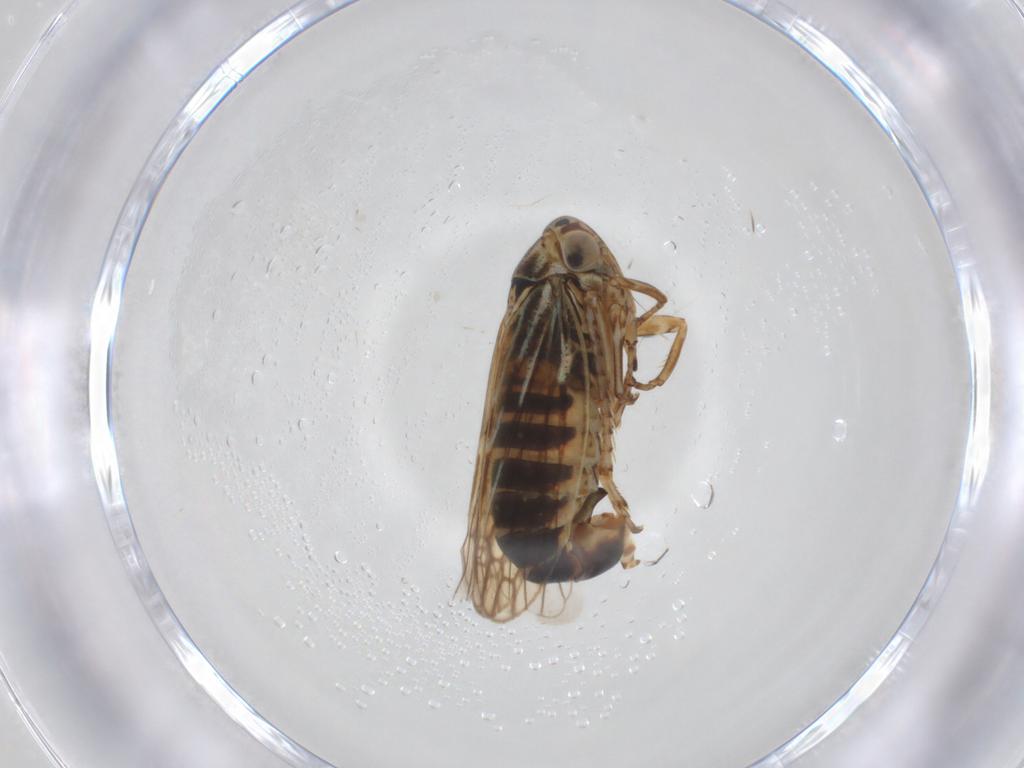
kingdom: Animalia
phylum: Arthropoda
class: Insecta
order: Hemiptera
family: Cicadellidae
